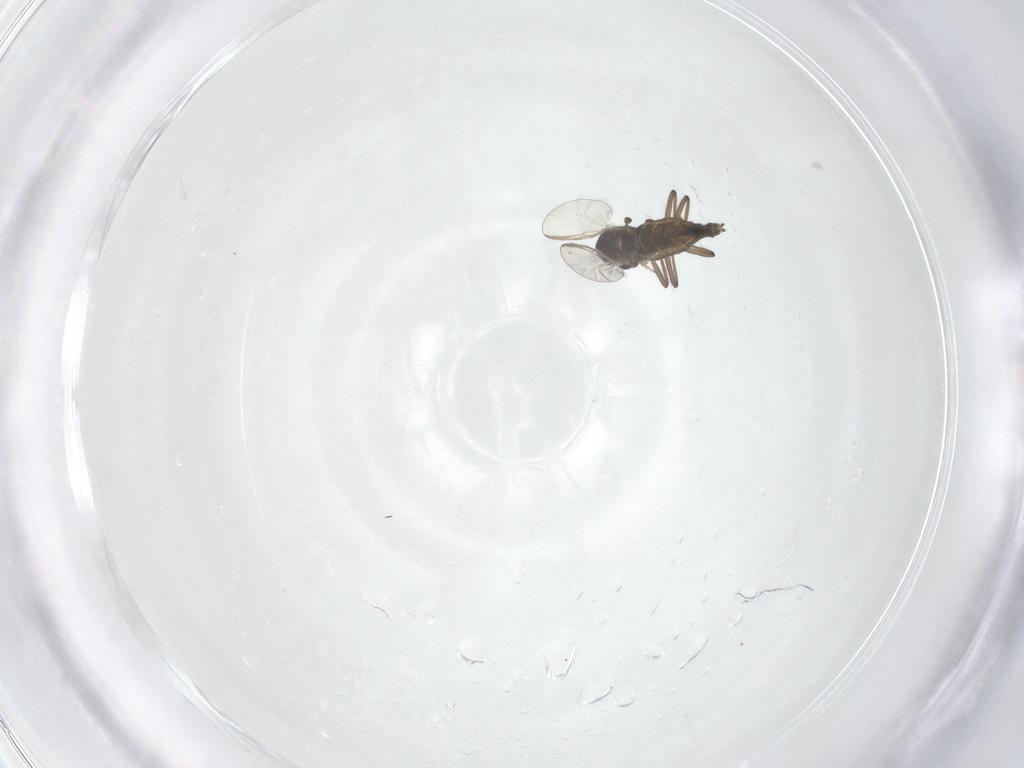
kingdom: Animalia
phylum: Arthropoda
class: Insecta
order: Diptera
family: Chironomidae
